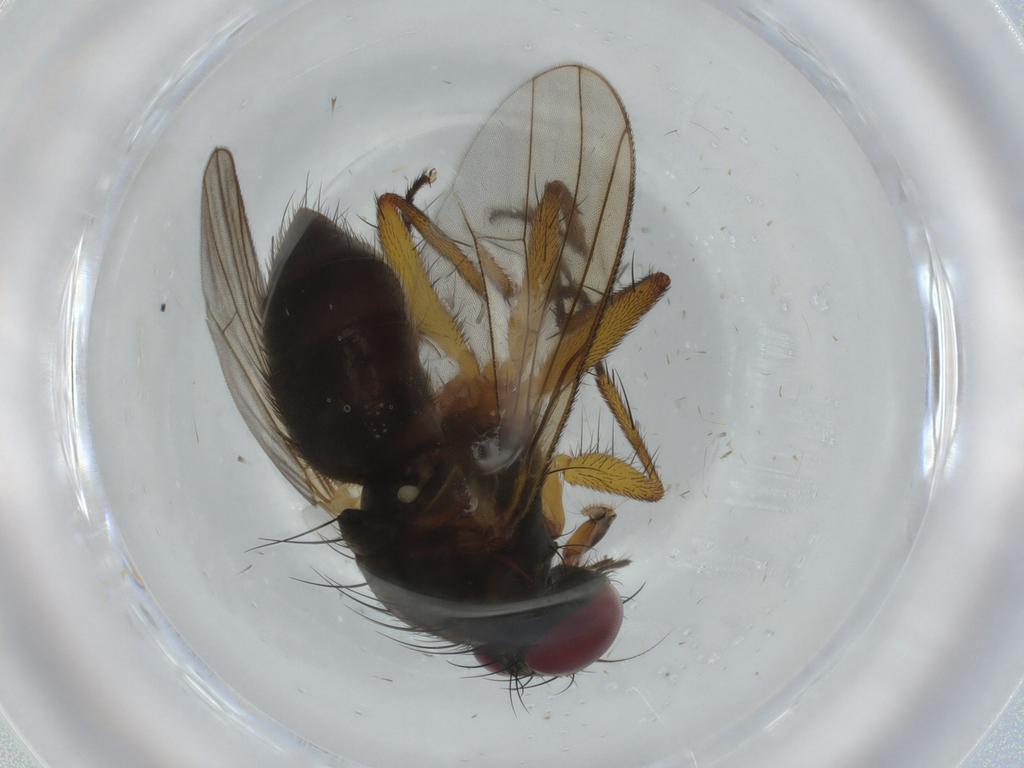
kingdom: Animalia
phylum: Arthropoda
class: Insecta
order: Diptera
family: Muscidae
